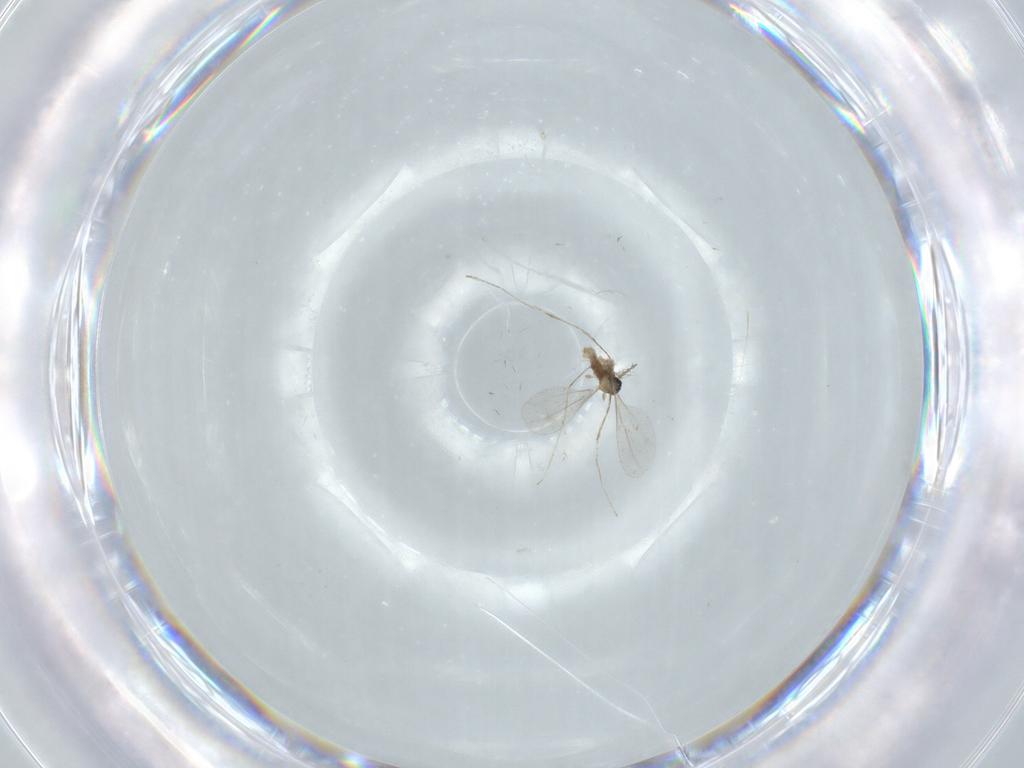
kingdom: Animalia
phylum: Arthropoda
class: Insecta
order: Diptera
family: Cecidomyiidae
